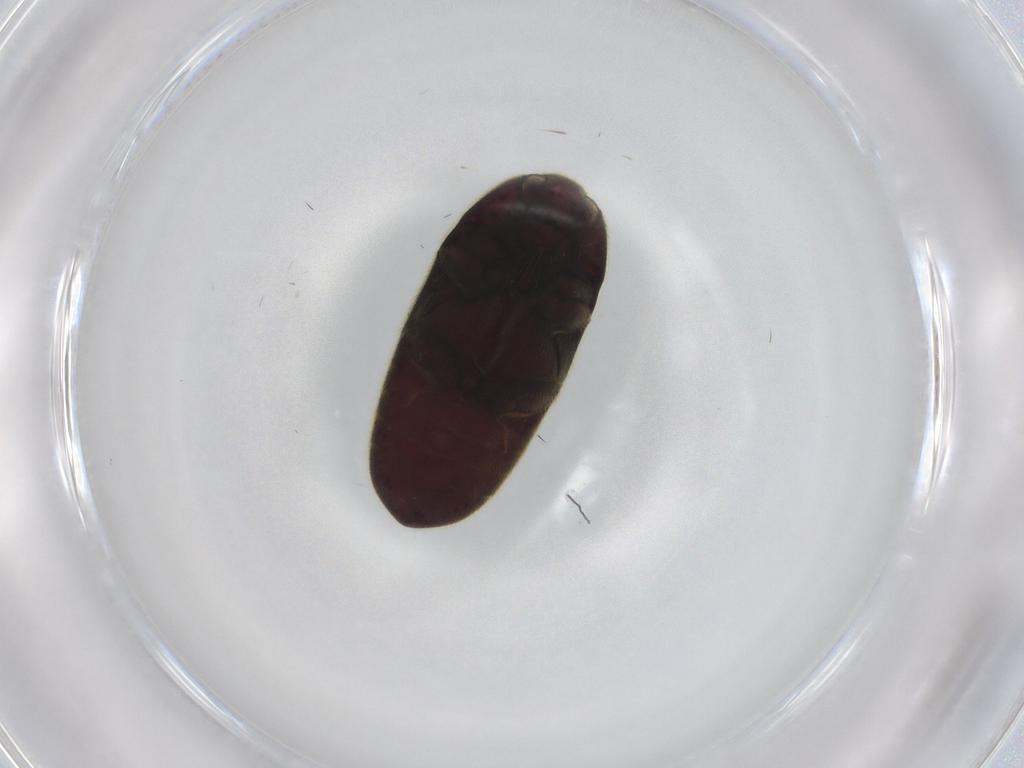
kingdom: Animalia
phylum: Arthropoda
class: Insecta
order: Coleoptera
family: Throscidae
